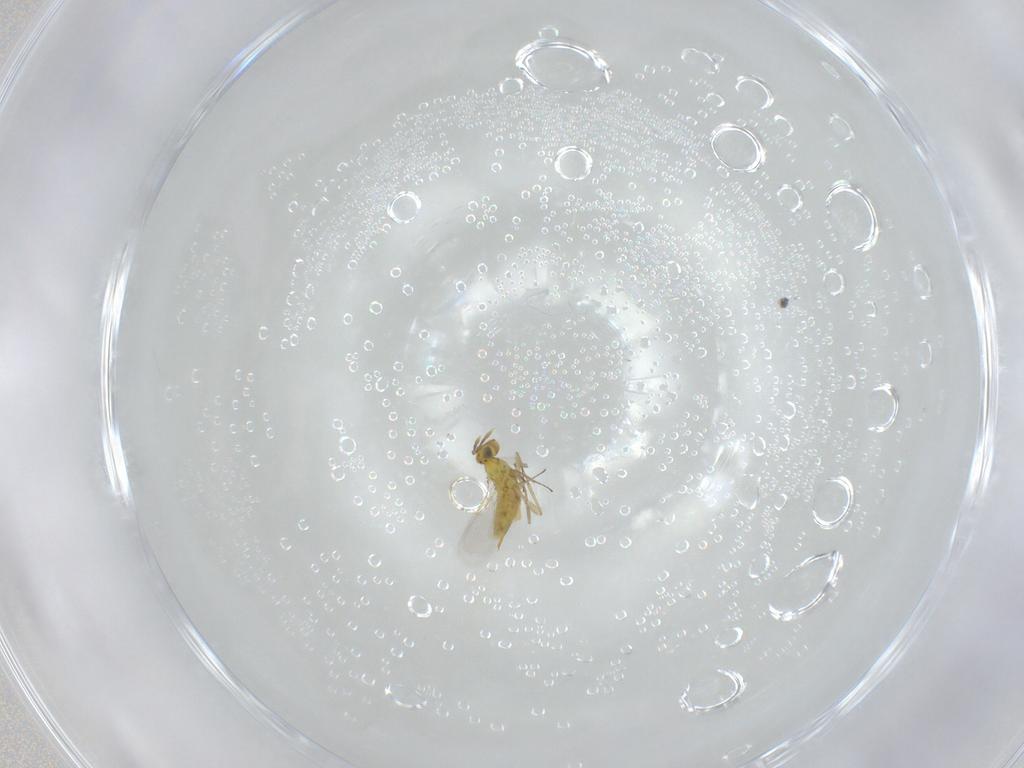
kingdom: Animalia
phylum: Arthropoda
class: Insecta
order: Hymenoptera
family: Aphelinidae
